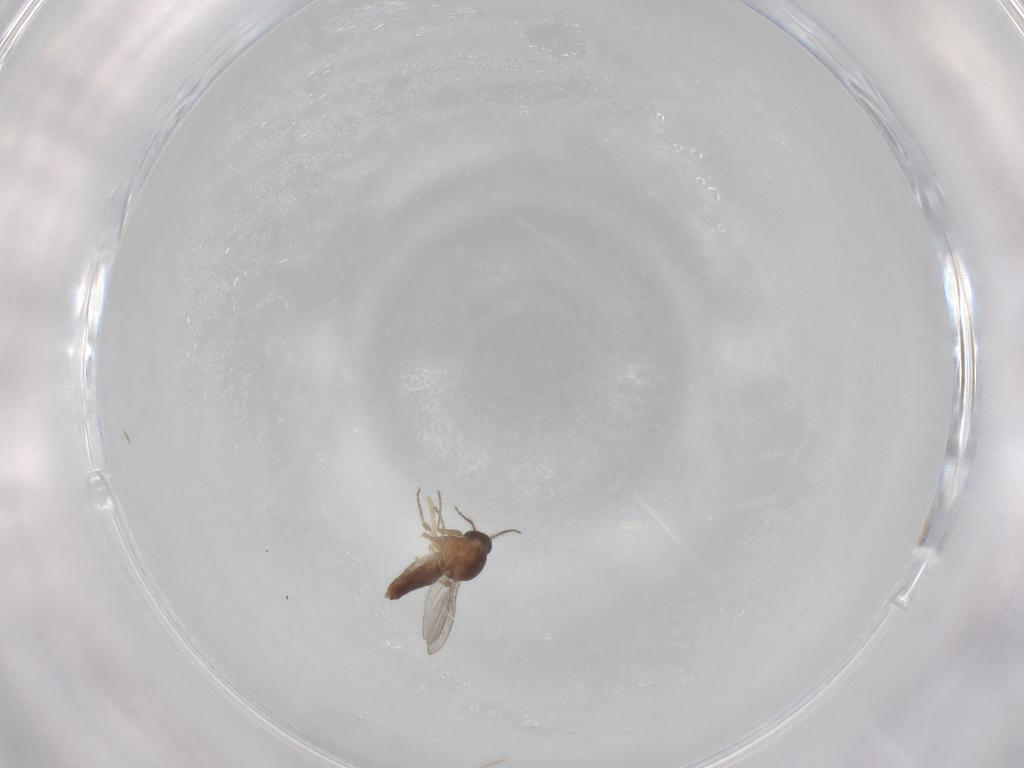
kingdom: Animalia
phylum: Arthropoda
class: Insecta
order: Diptera
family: Ceratopogonidae
